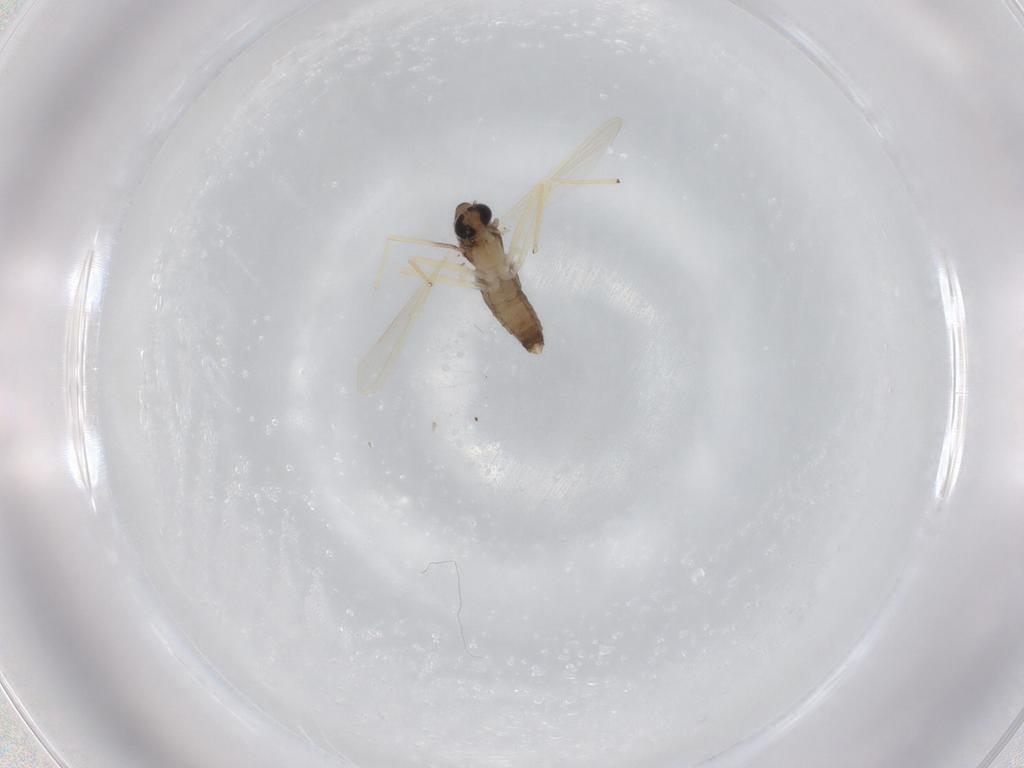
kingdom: Animalia
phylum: Arthropoda
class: Insecta
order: Diptera
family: Chironomidae
